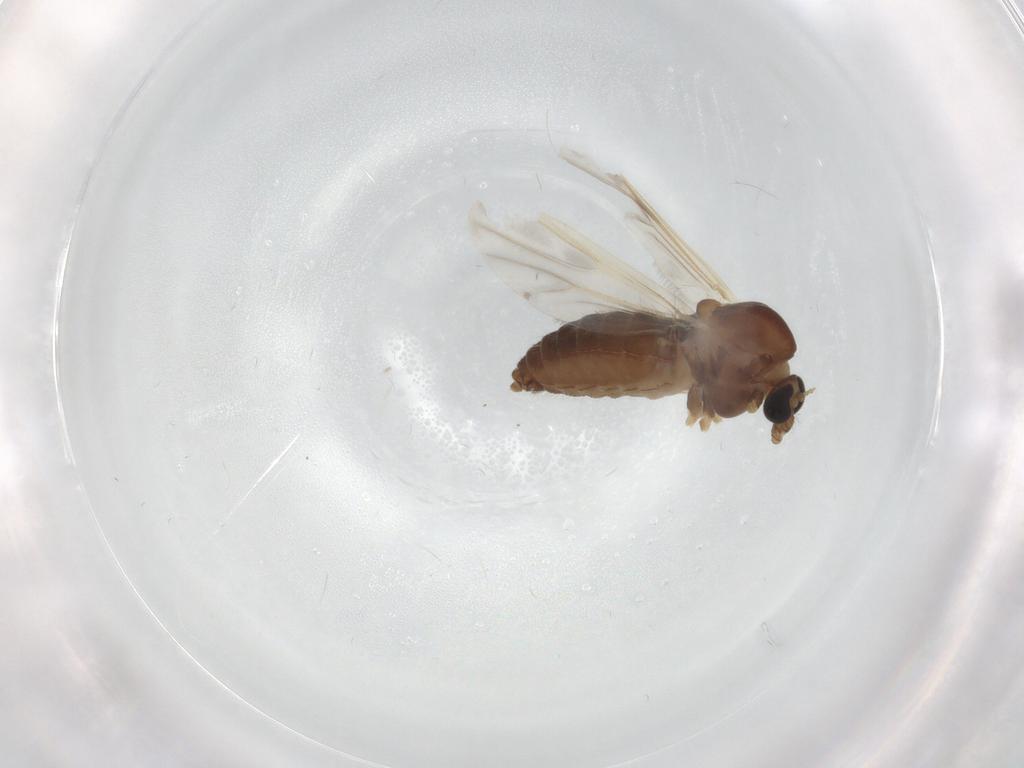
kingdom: Animalia
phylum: Arthropoda
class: Insecta
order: Diptera
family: Chironomidae
